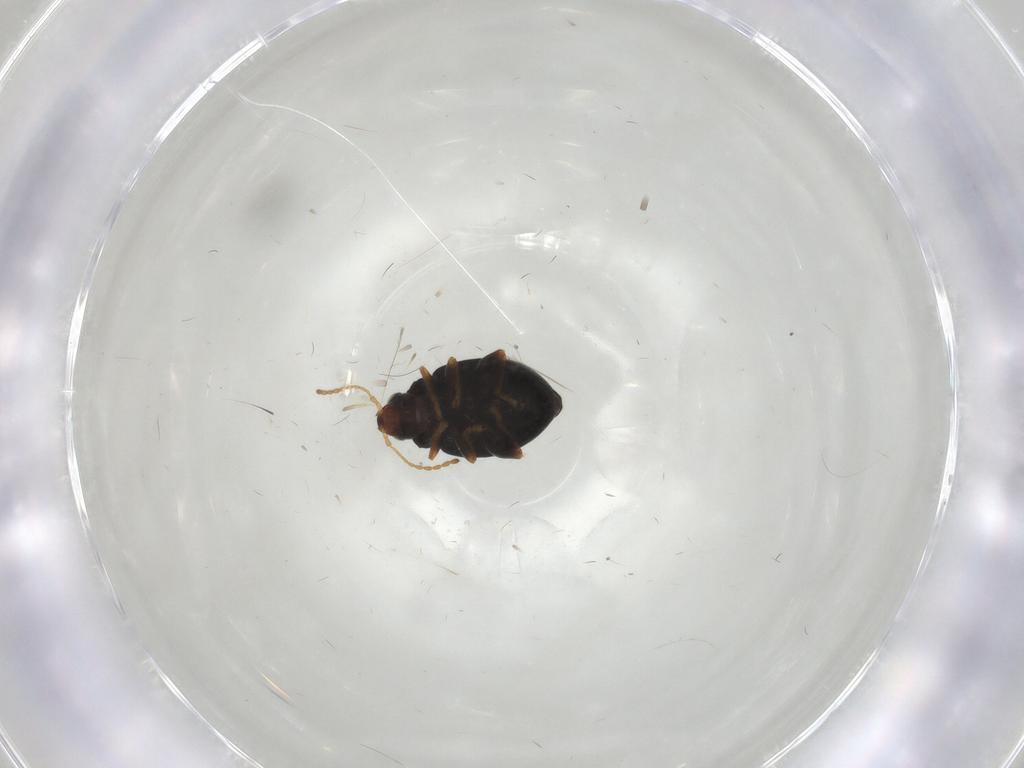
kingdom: Animalia
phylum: Arthropoda
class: Insecta
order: Coleoptera
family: Chrysomelidae
